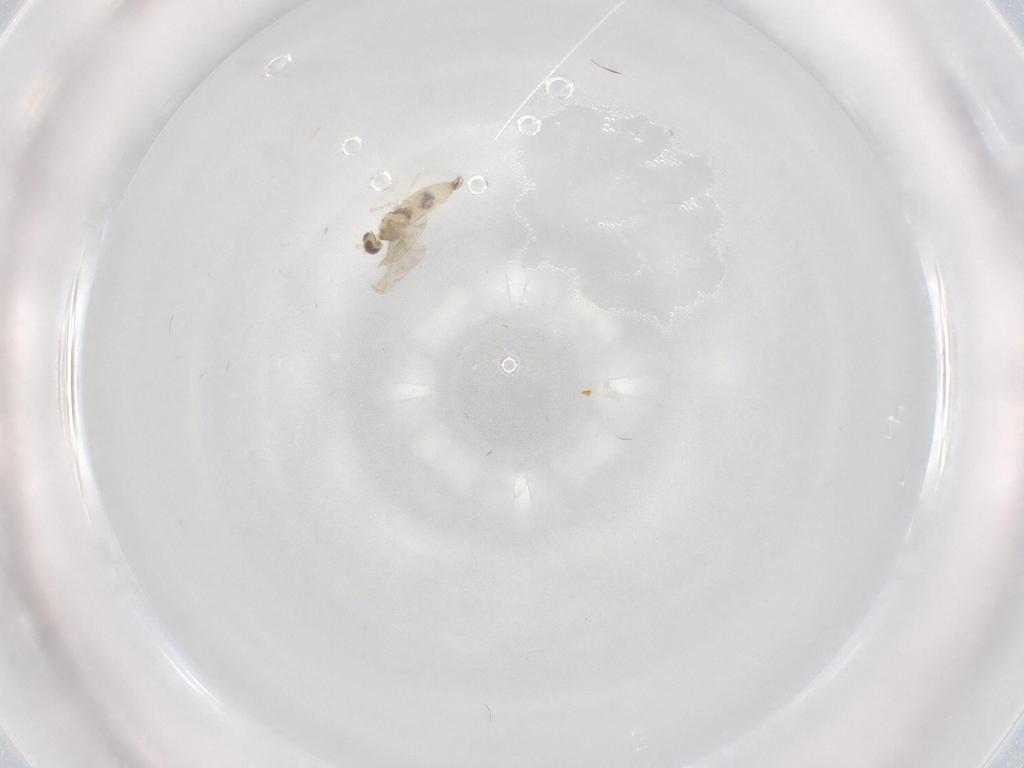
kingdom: Animalia
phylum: Arthropoda
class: Insecta
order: Diptera
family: Cecidomyiidae
